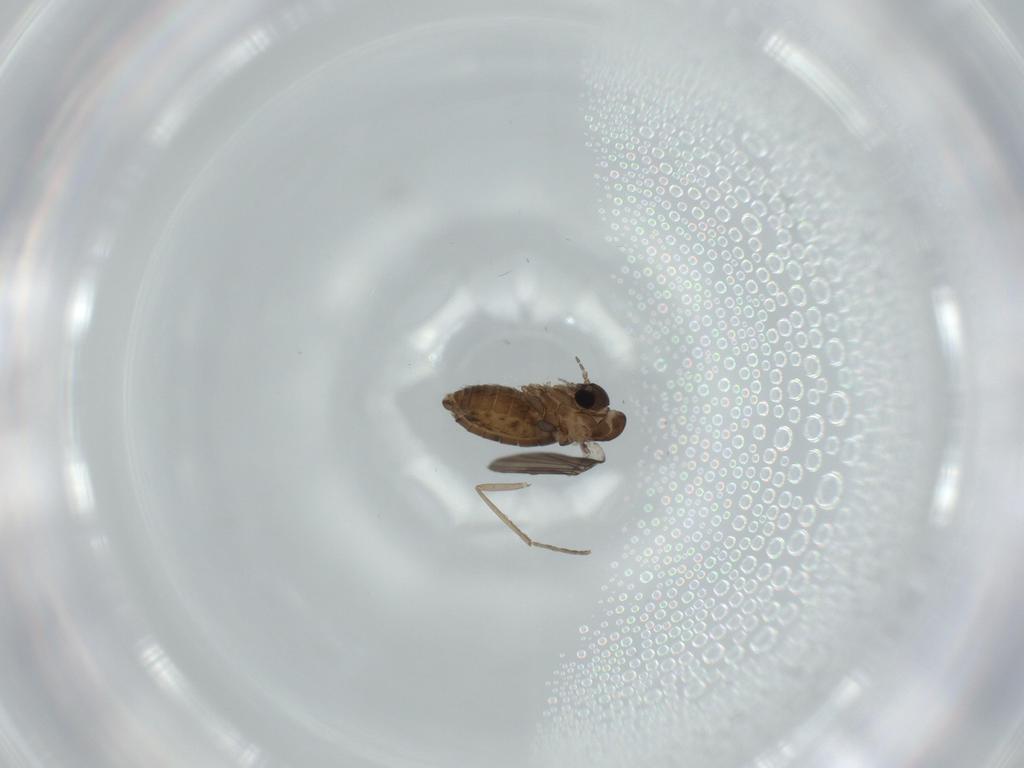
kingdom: Animalia
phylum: Arthropoda
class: Insecta
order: Diptera
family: Psychodidae
